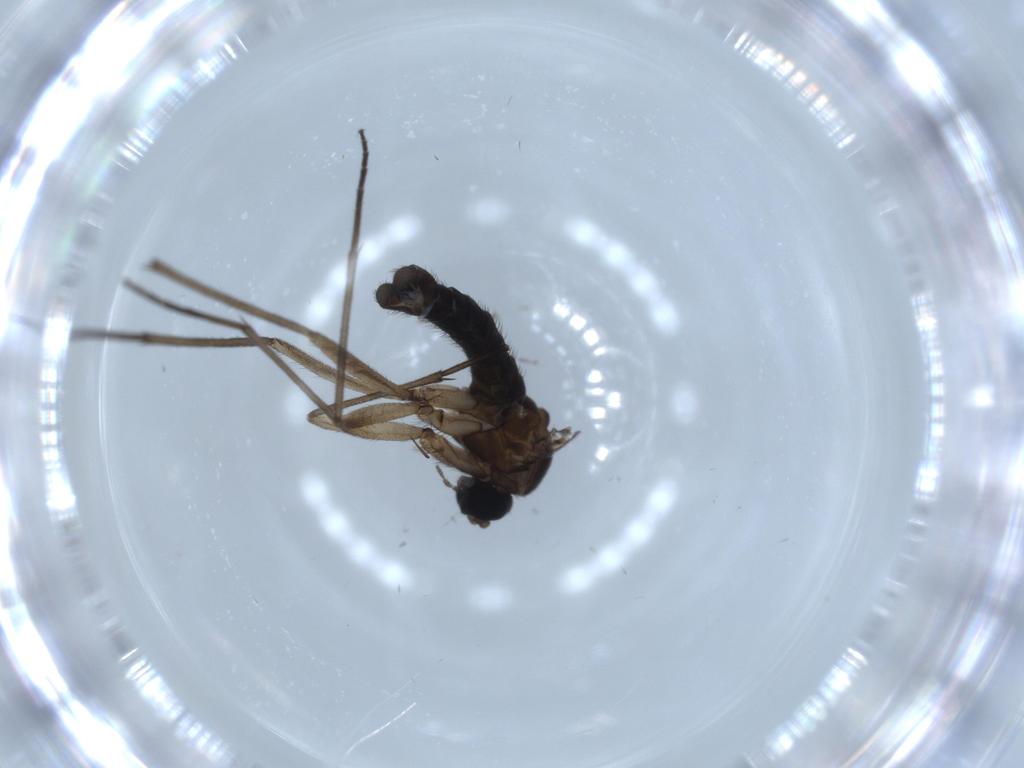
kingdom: Animalia
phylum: Arthropoda
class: Insecta
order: Diptera
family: Sciaridae
